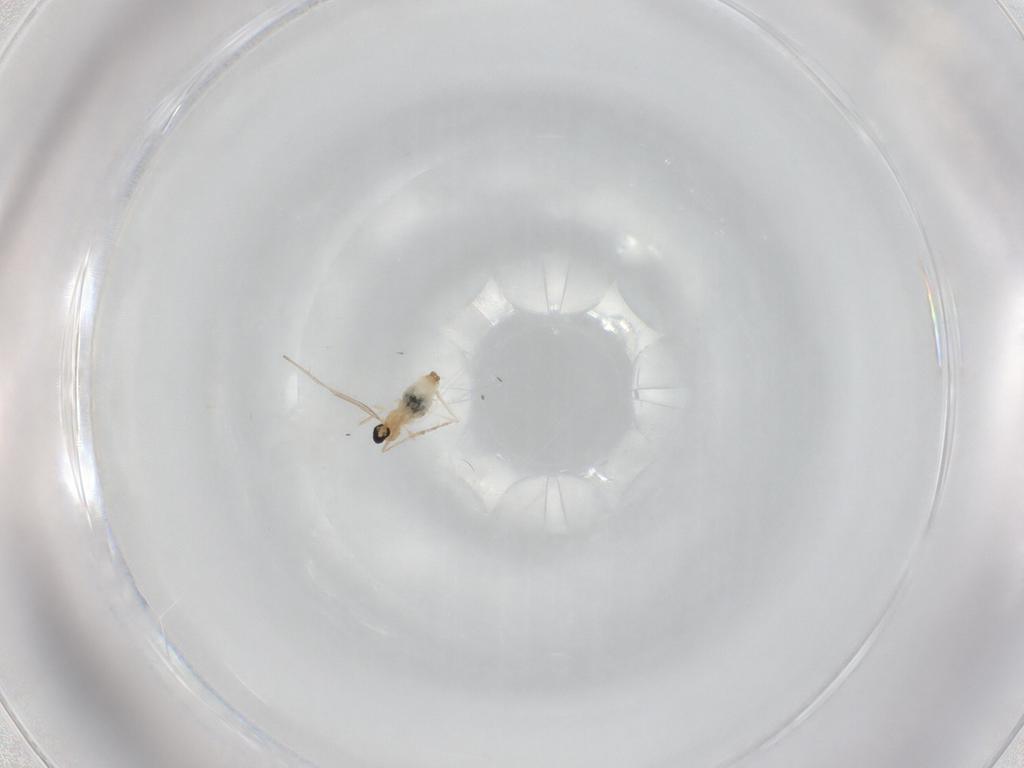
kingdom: Animalia
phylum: Arthropoda
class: Insecta
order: Diptera
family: Cecidomyiidae
